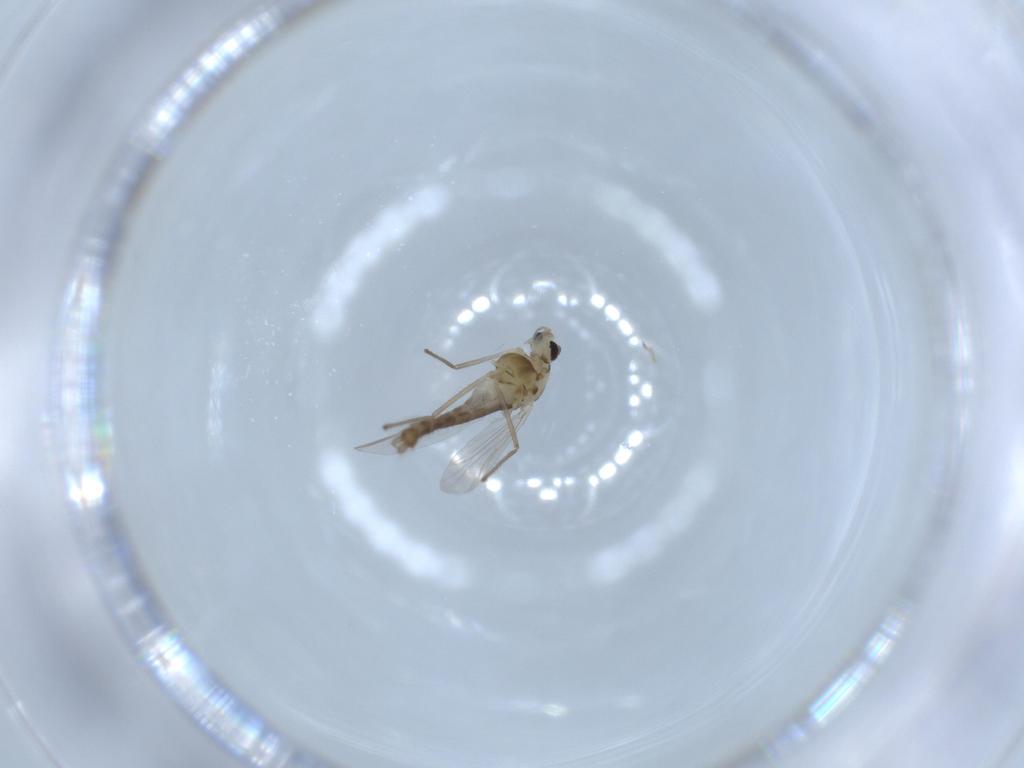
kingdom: Animalia
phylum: Arthropoda
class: Insecta
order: Diptera
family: Chironomidae
